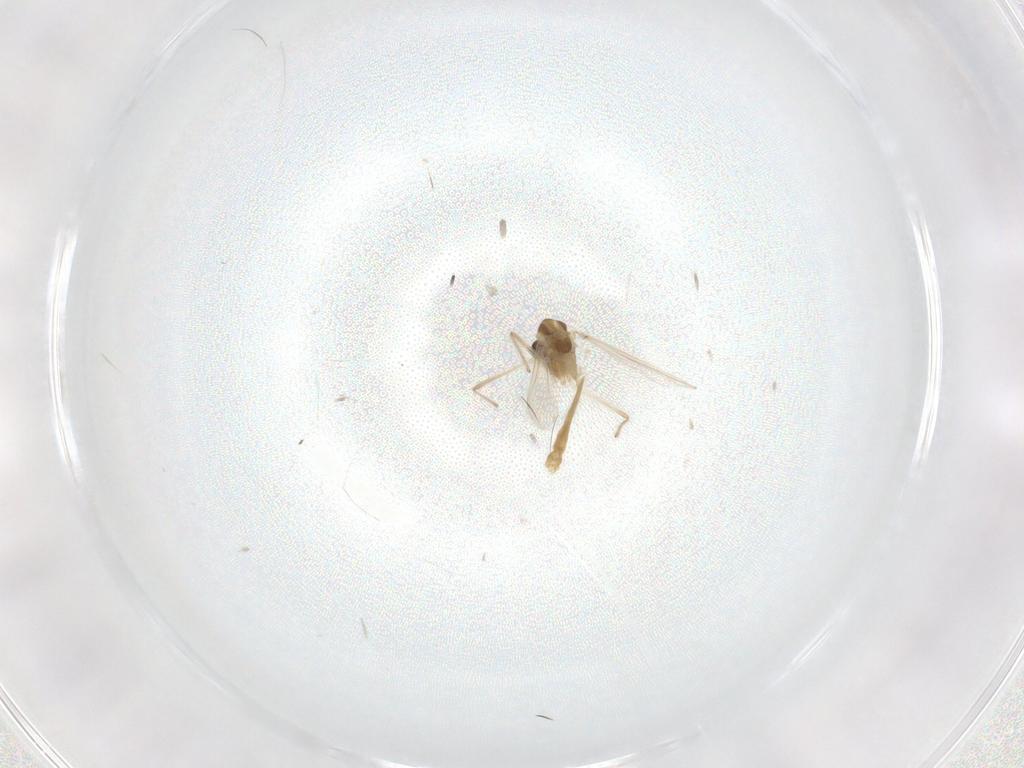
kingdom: Animalia
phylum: Arthropoda
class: Insecta
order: Diptera
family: Chironomidae
